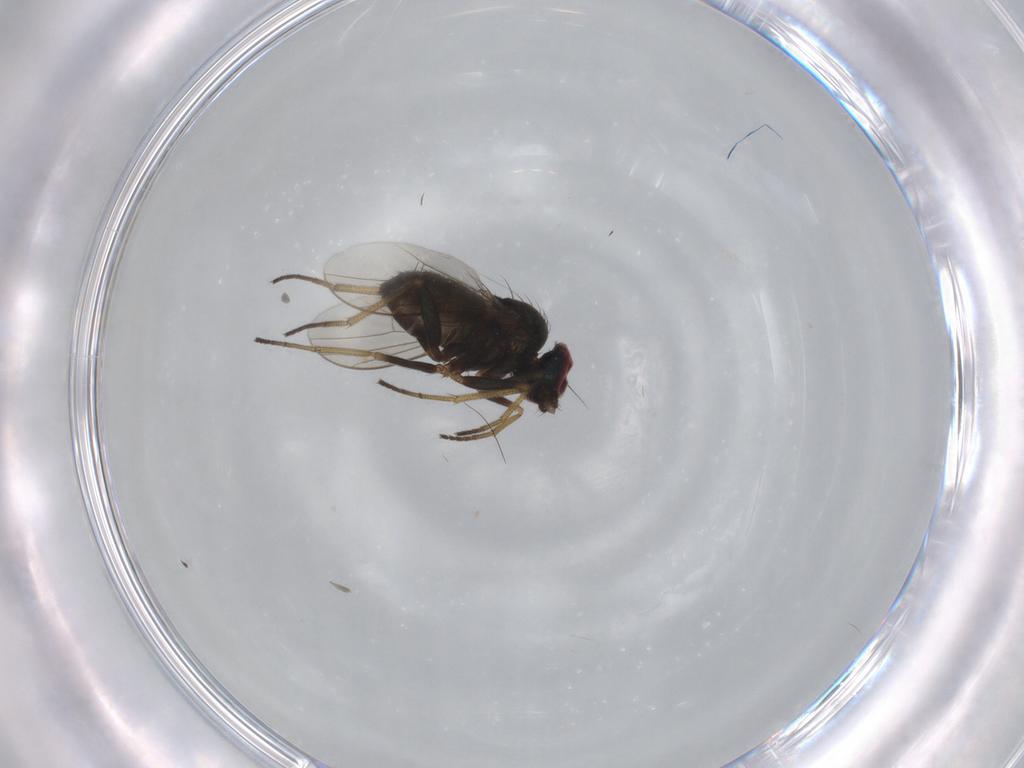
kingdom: Animalia
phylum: Arthropoda
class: Insecta
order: Diptera
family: Dolichopodidae
